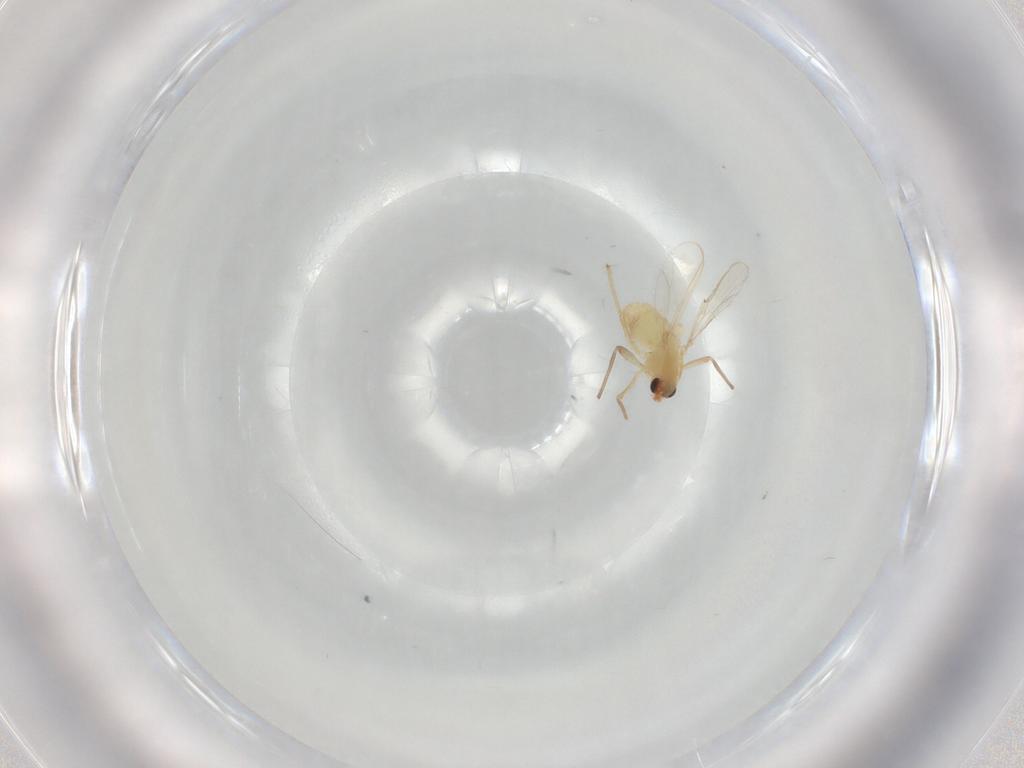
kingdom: Animalia
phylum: Arthropoda
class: Insecta
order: Diptera
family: Chironomidae
